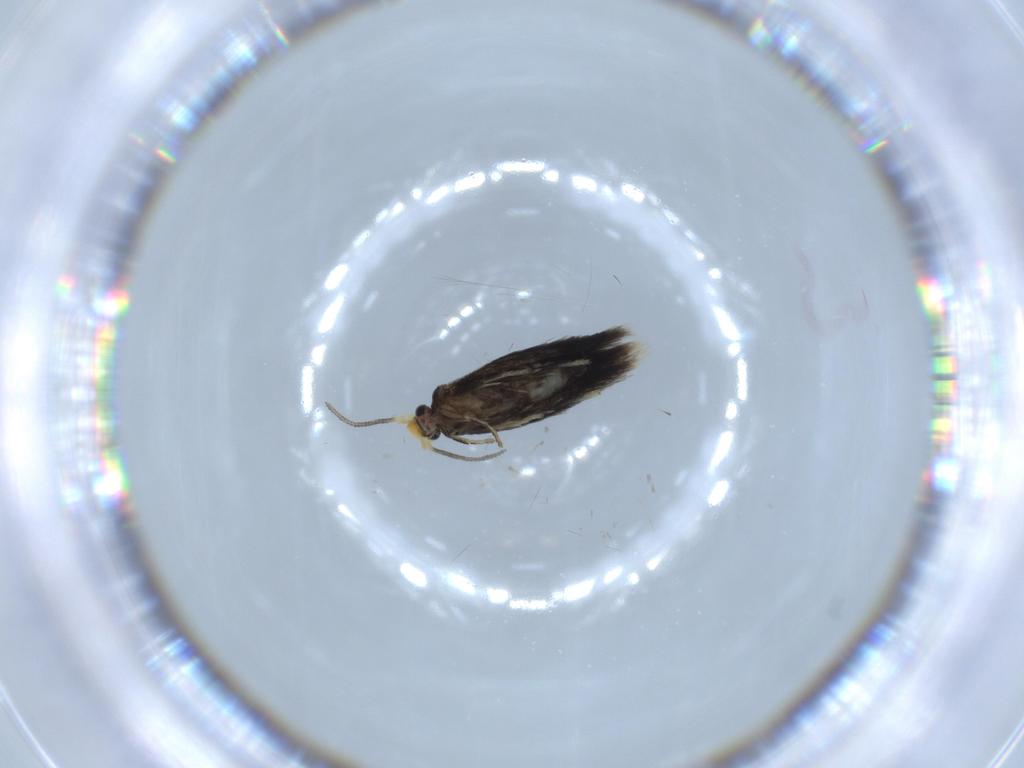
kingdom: Animalia
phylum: Arthropoda
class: Insecta
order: Lepidoptera
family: Nepticulidae
